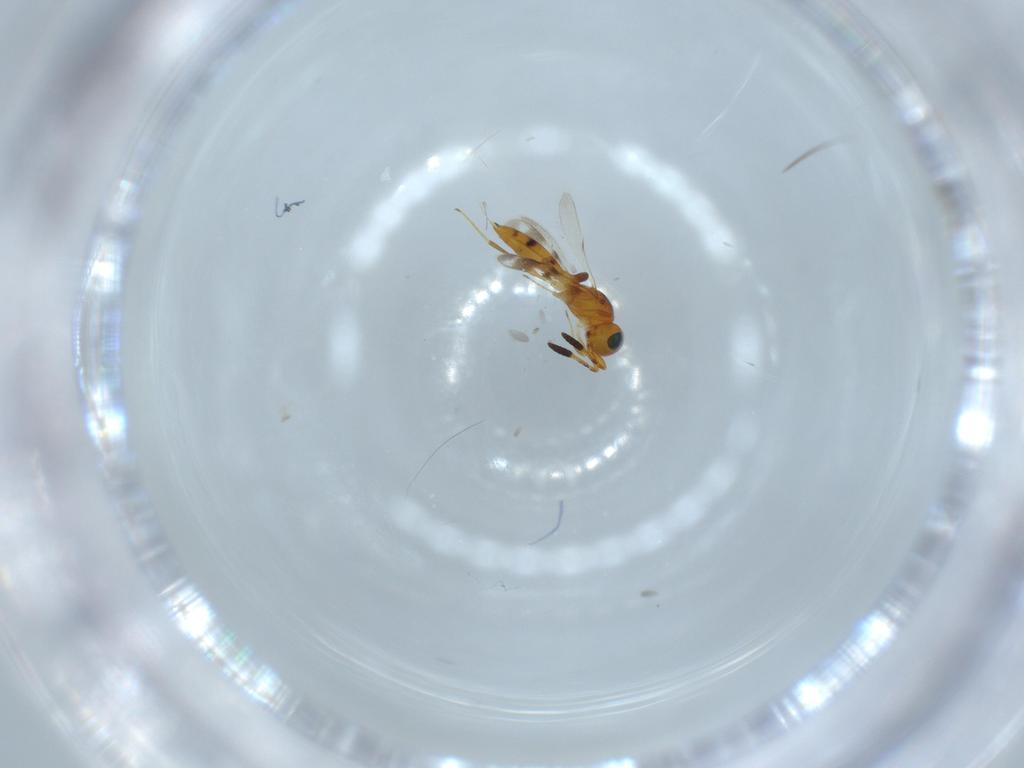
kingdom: Animalia
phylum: Arthropoda
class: Insecta
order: Hymenoptera
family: Scelionidae
